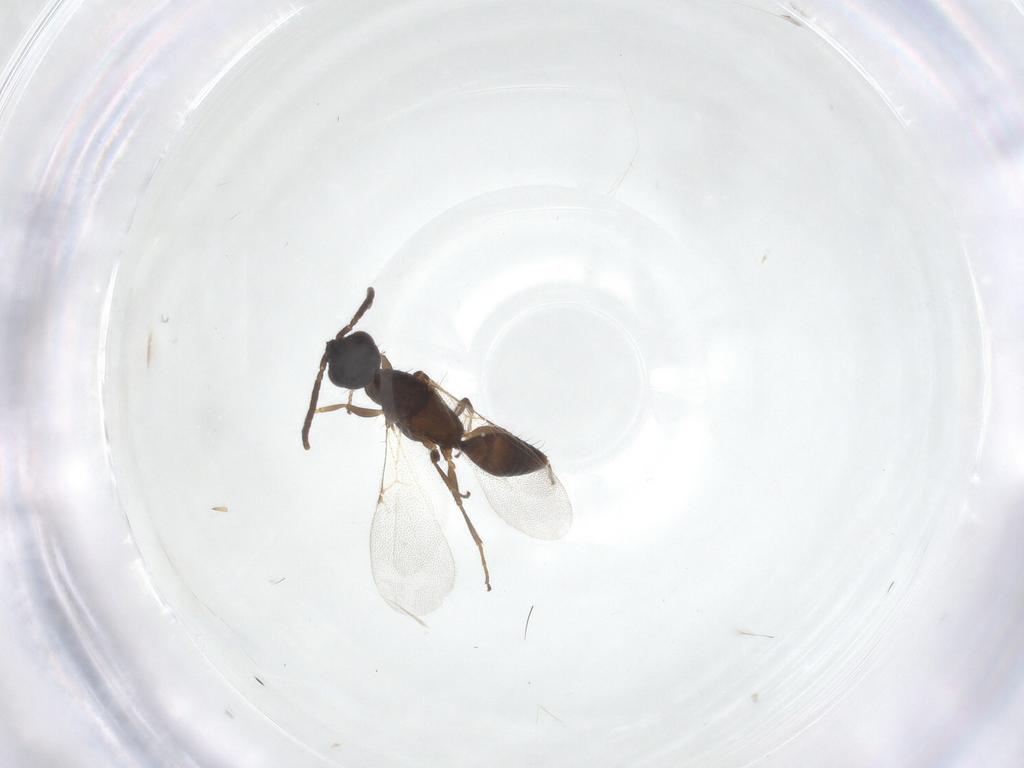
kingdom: Animalia
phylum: Arthropoda
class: Insecta
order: Hymenoptera
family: Bethylidae
